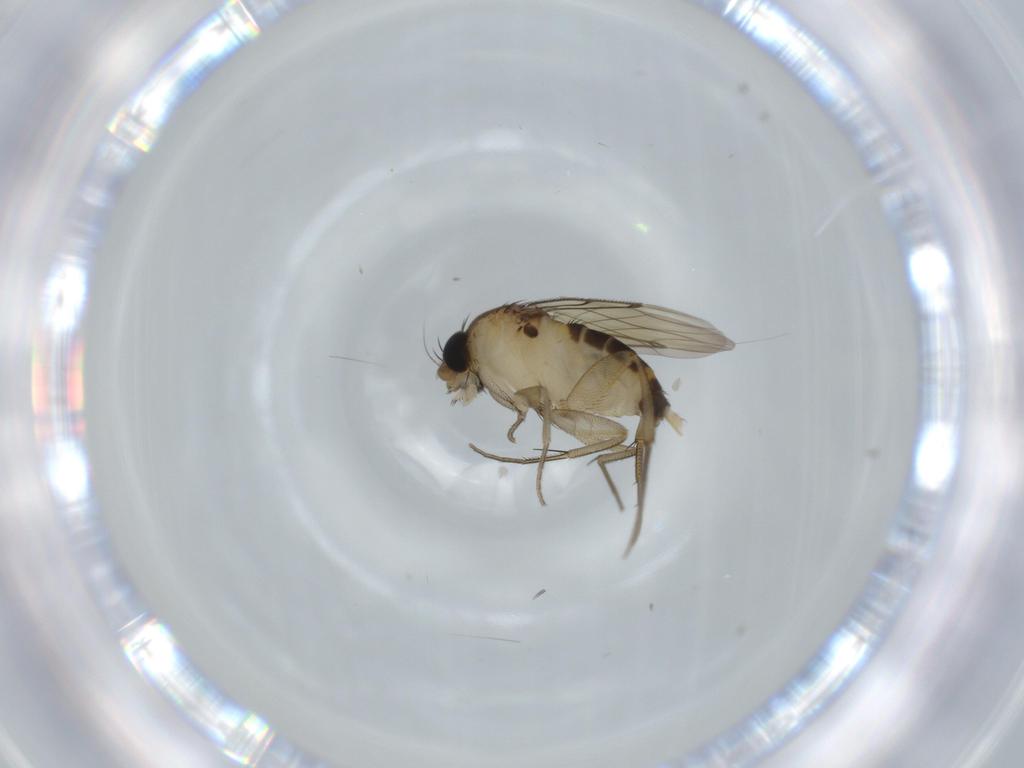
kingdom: Animalia
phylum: Arthropoda
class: Insecta
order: Diptera
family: Phoridae
